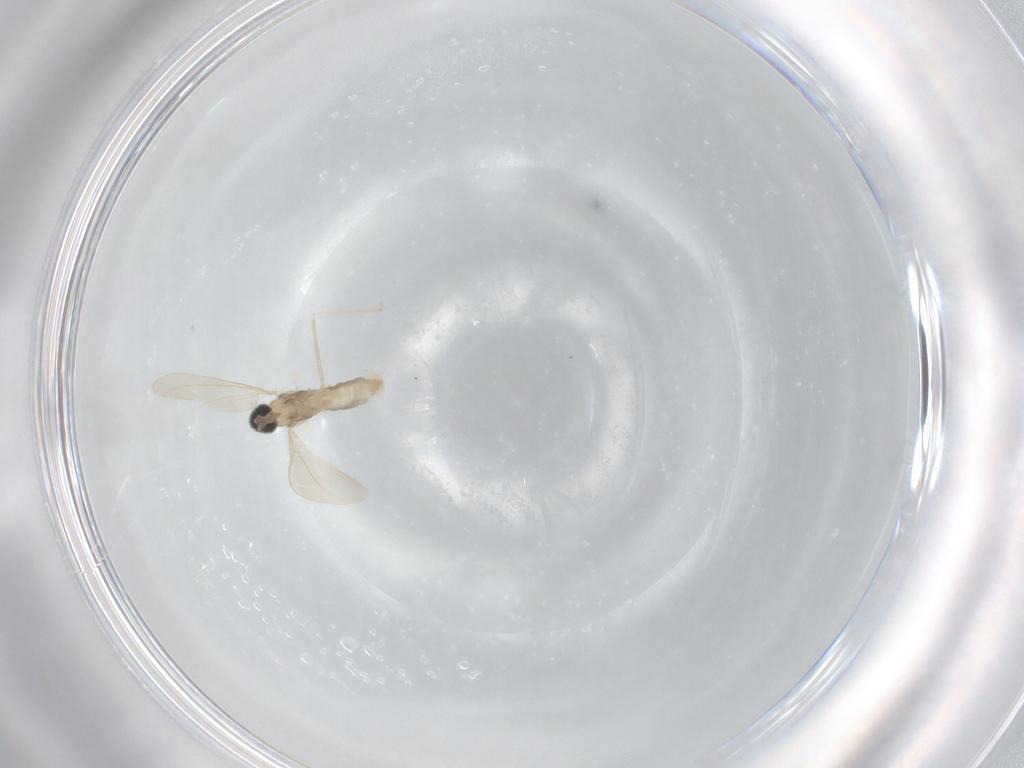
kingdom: Animalia
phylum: Arthropoda
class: Insecta
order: Diptera
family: Cecidomyiidae
